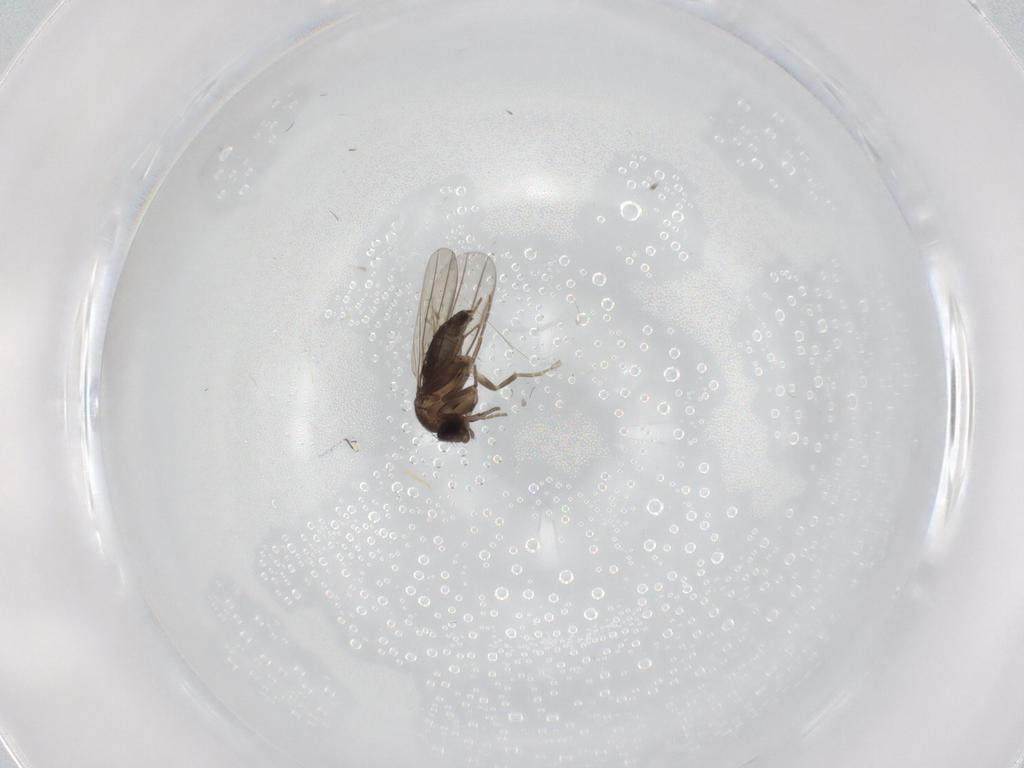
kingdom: Animalia
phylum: Arthropoda
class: Insecta
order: Diptera
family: Phoridae
